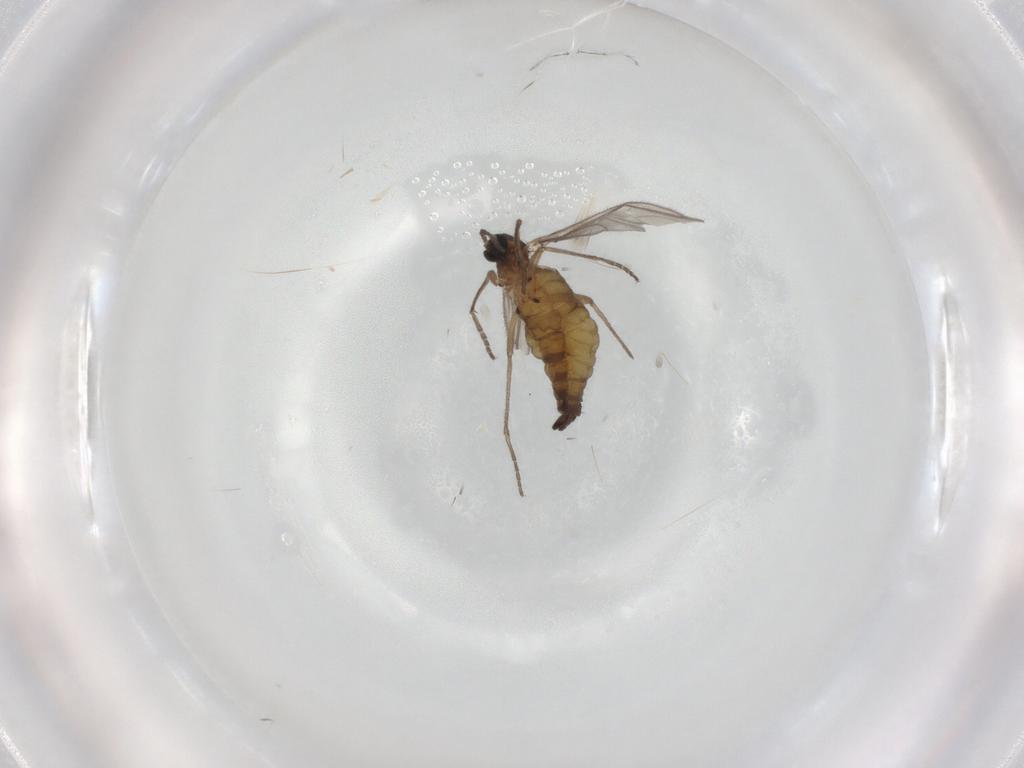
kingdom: Animalia
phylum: Arthropoda
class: Insecta
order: Diptera
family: Sciaridae
